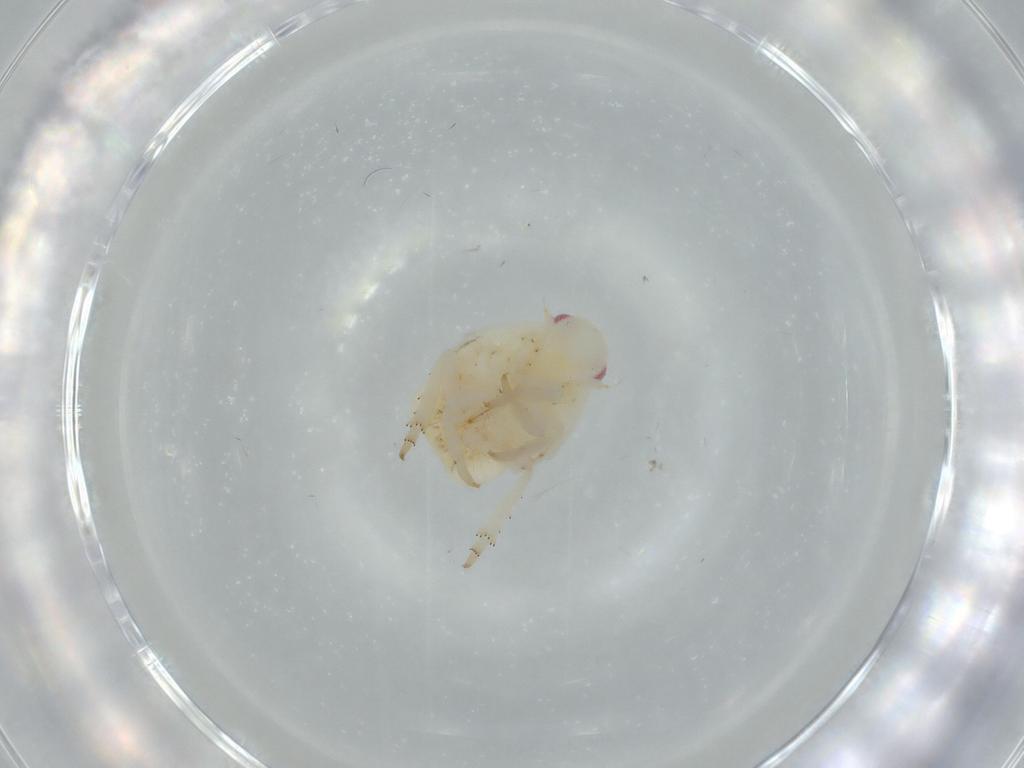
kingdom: Animalia
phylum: Arthropoda
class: Insecta
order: Hemiptera
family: Flatidae
